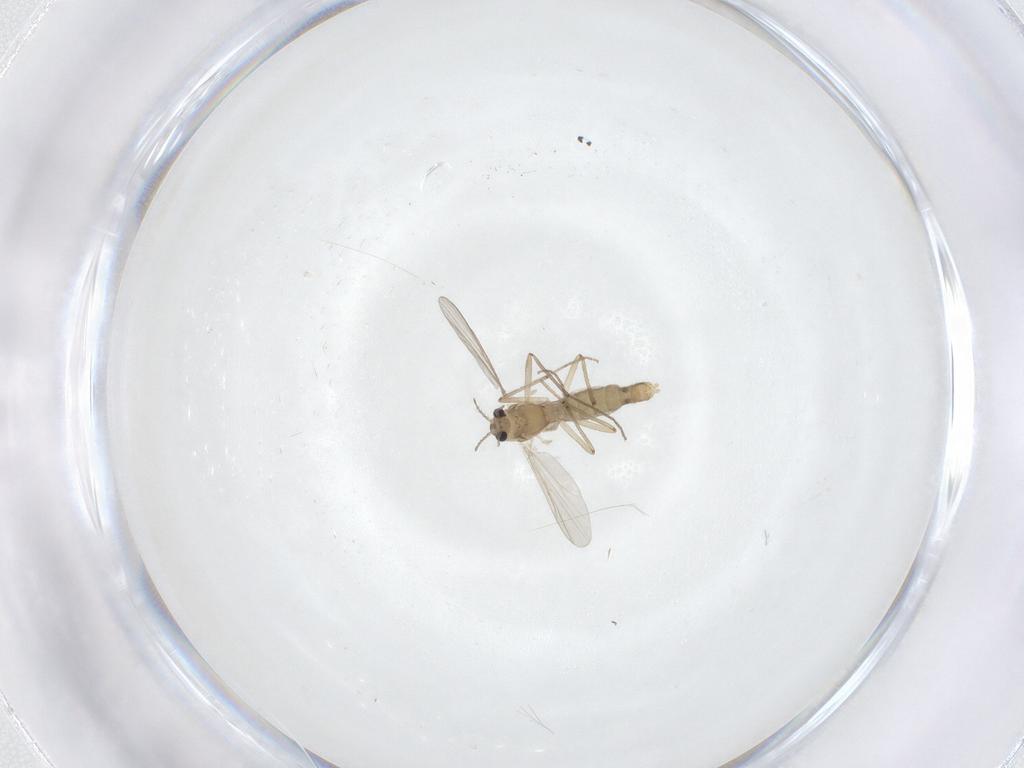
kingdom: Animalia
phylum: Arthropoda
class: Insecta
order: Diptera
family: Chironomidae
